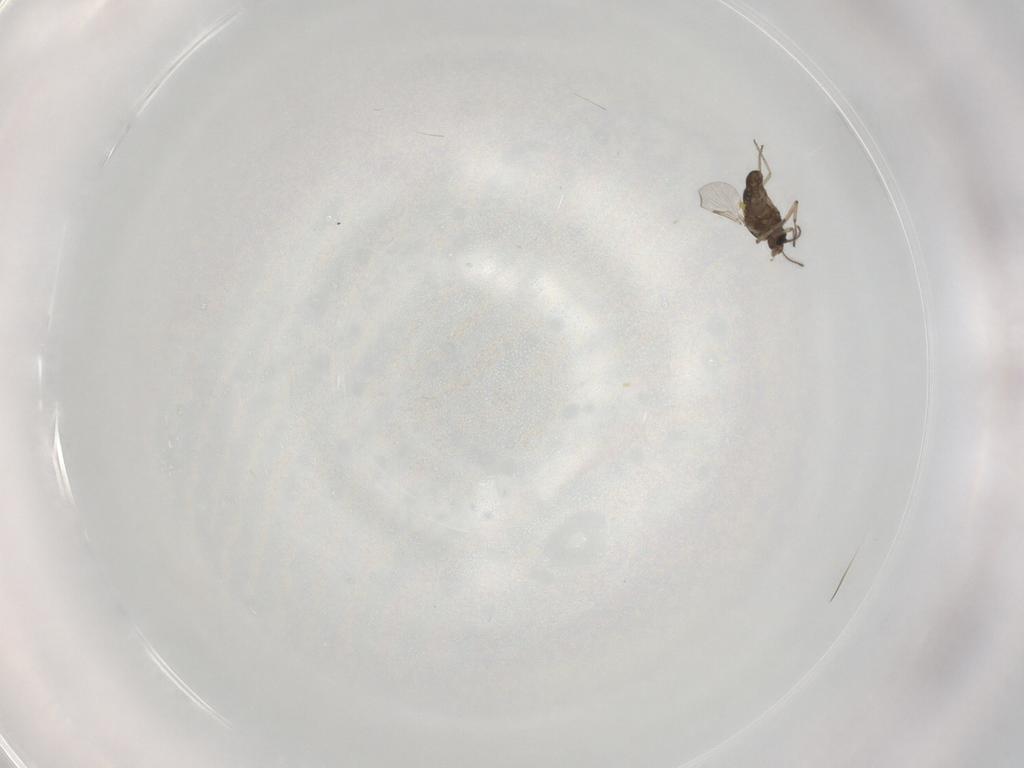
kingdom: Animalia
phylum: Arthropoda
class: Insecta
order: Diptera
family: Ceratopogonidae
